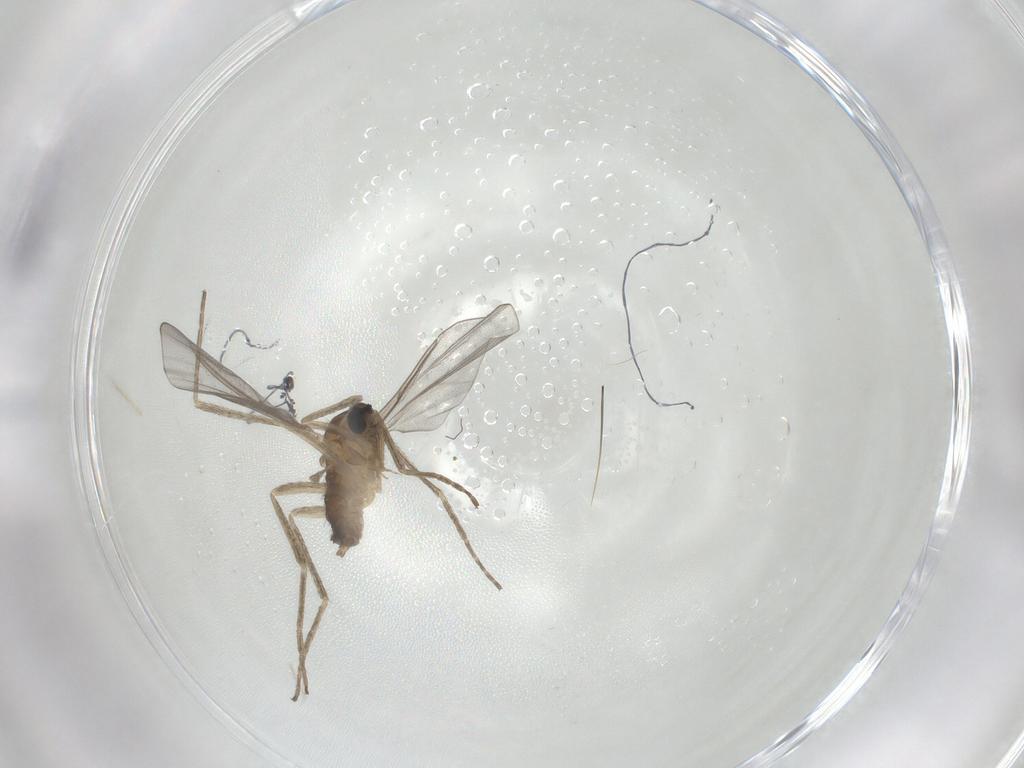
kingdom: Animalia
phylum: Arthropoda
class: Insecta
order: Diptera
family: Cecidomyiidae
